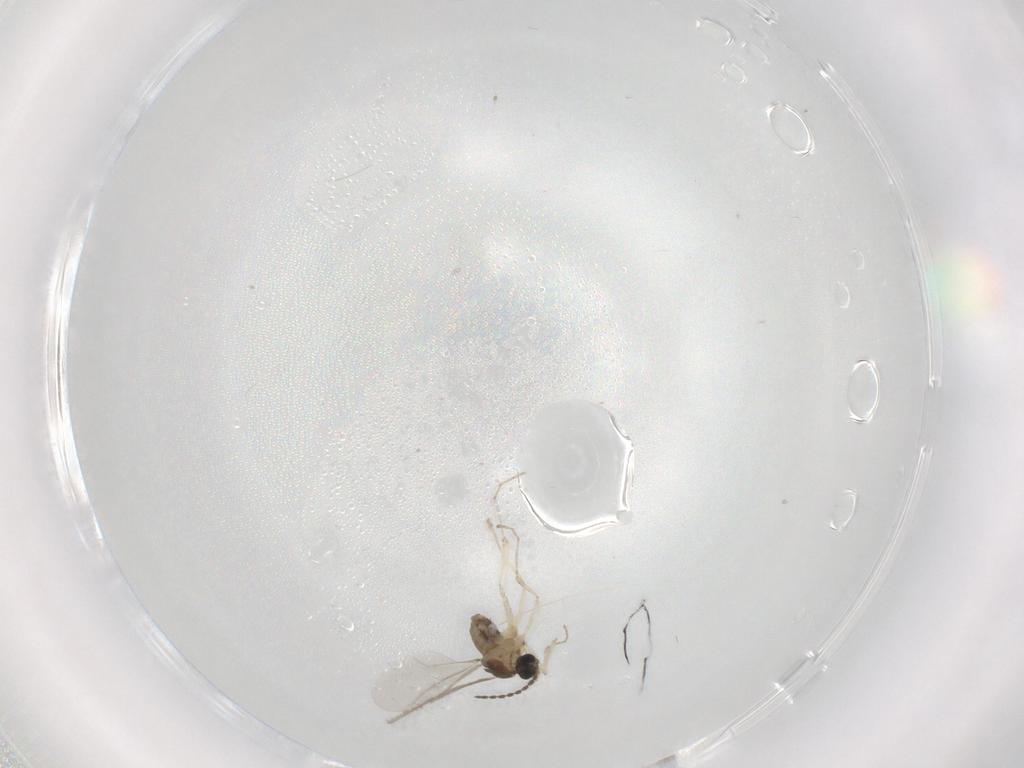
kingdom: Animalia
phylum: Arthropoda
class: Insecta
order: Diptera
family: Cecidomyiidae
